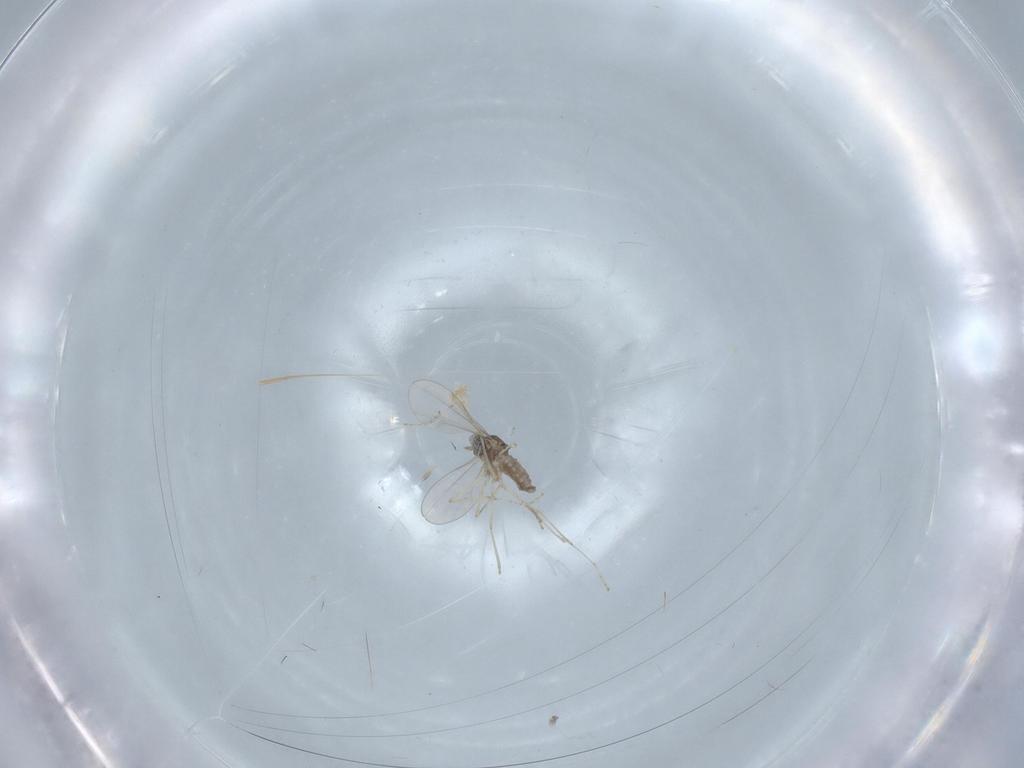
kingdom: Animalia
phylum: Arthropoda
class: Insecta
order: Diptera
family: Cecidomyiidae
